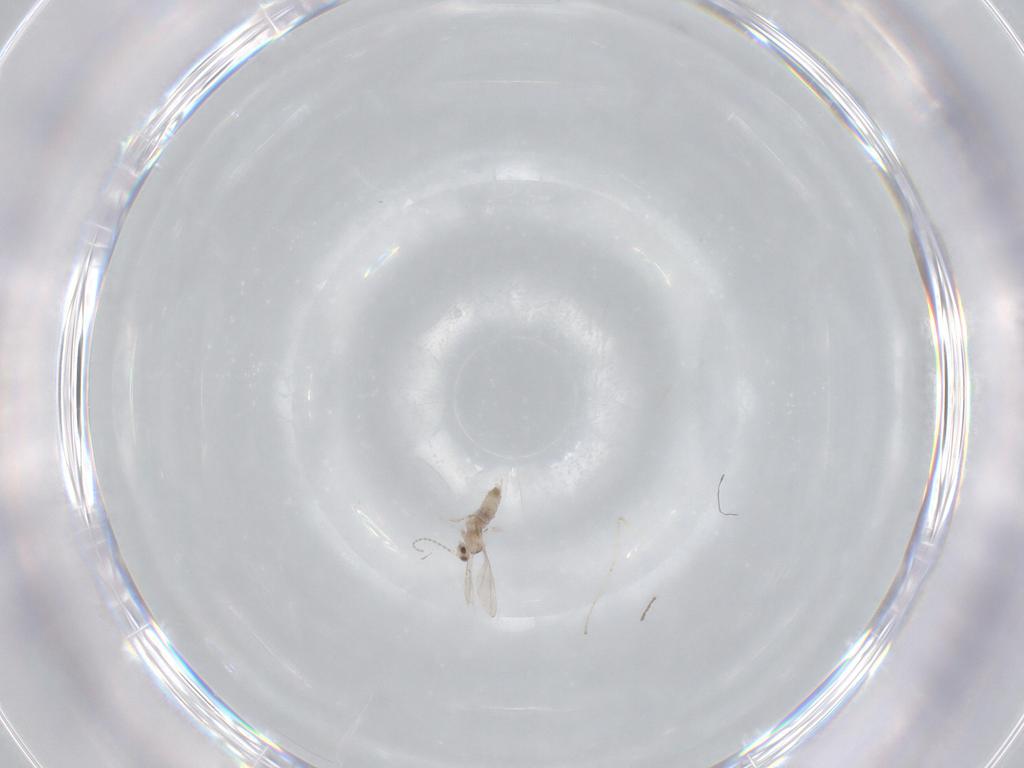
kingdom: Animalia
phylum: Arthropoda
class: Insecta
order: Diptera
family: Cecidomyiidae
